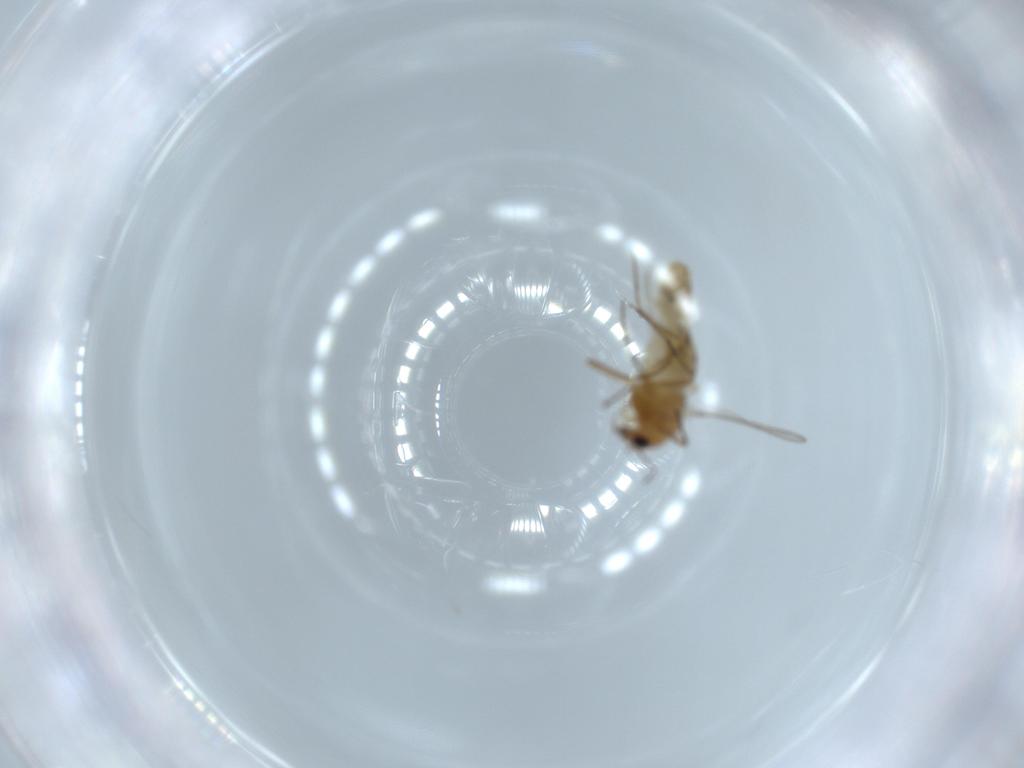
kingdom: Animalia
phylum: Arthropoda
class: Insecta
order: Diptera
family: Chironomidae
